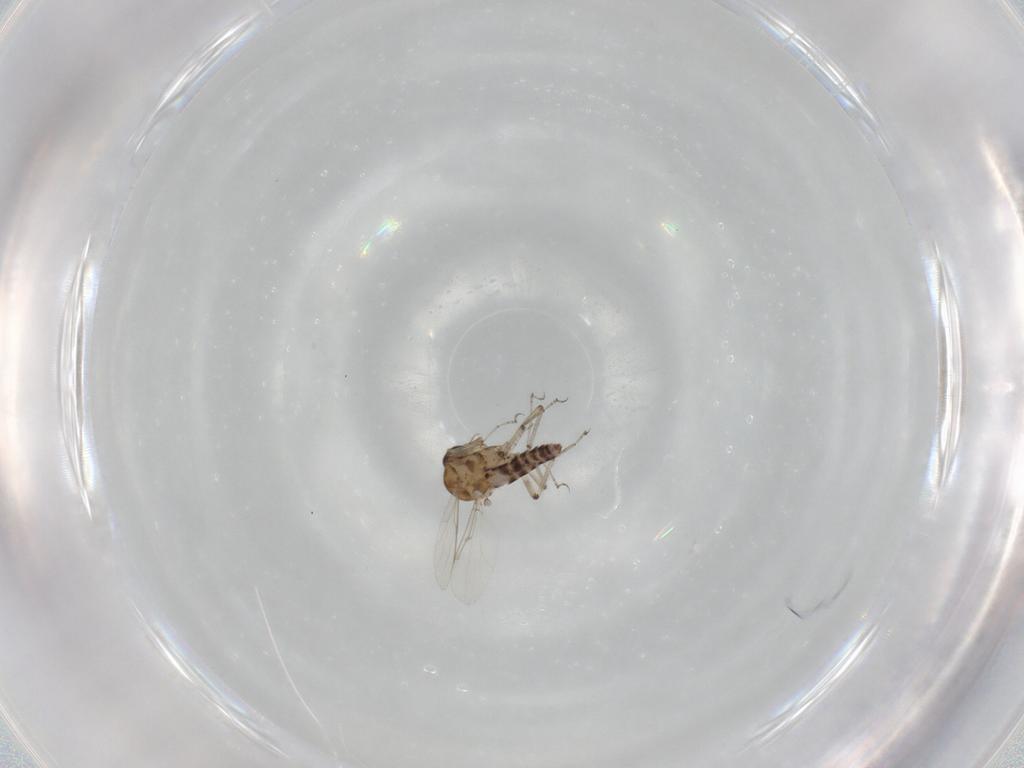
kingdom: Animalia
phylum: Arthropoda
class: Insecta
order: Diptera
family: Ceratopogonidae
